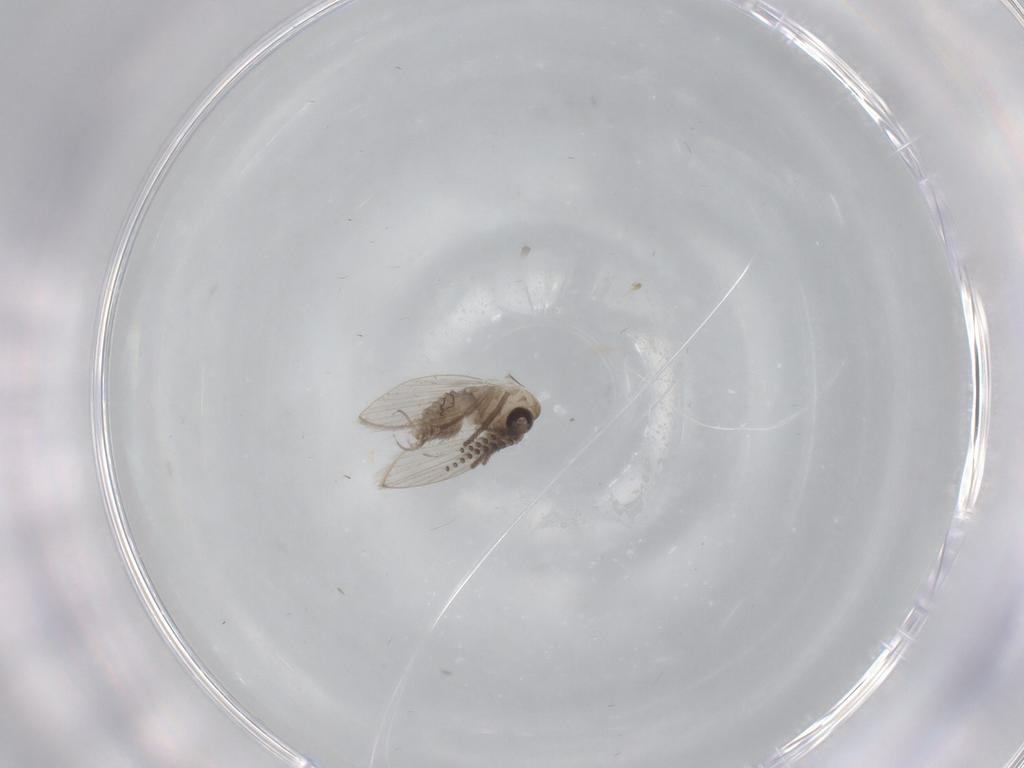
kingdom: Animalia
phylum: Arthropoda
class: Insecta
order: Diptera
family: Psychodidae
